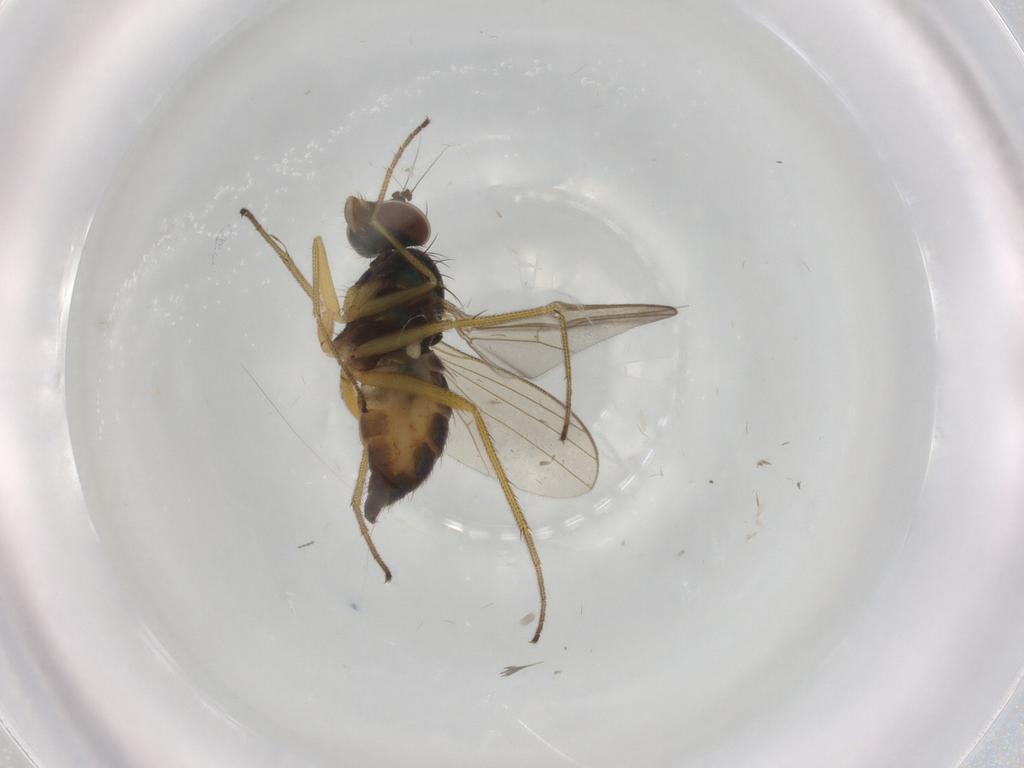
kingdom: Animalia
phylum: Arthropoda
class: Insecta
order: Diptera
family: Dolichopodidae
